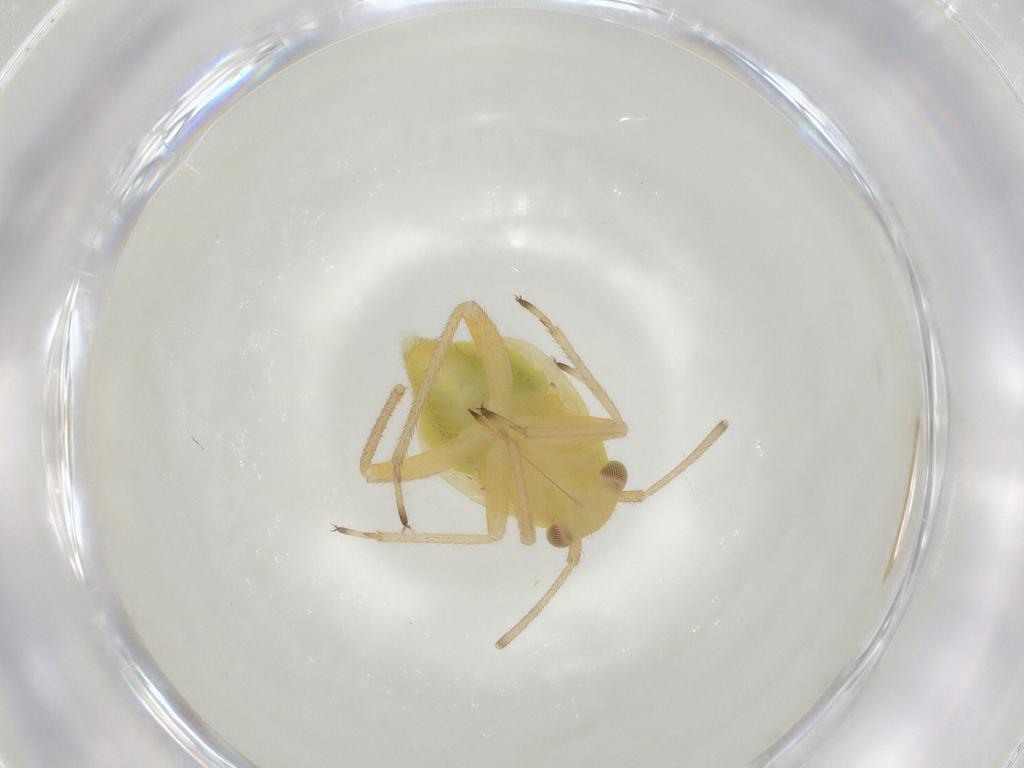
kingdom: Animalia
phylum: Arthropoda
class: Insecta
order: Hemiptera
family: Miridae
